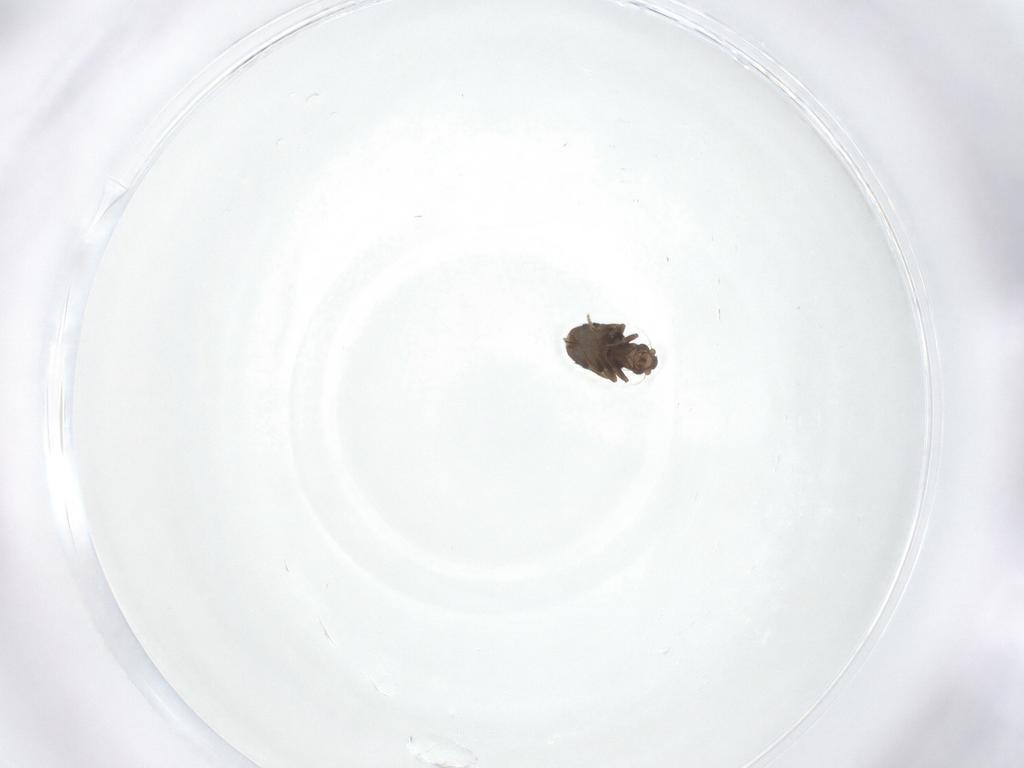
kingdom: Animalia
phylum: Arthropoda
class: Insecta
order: Diptera
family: Phoridae
